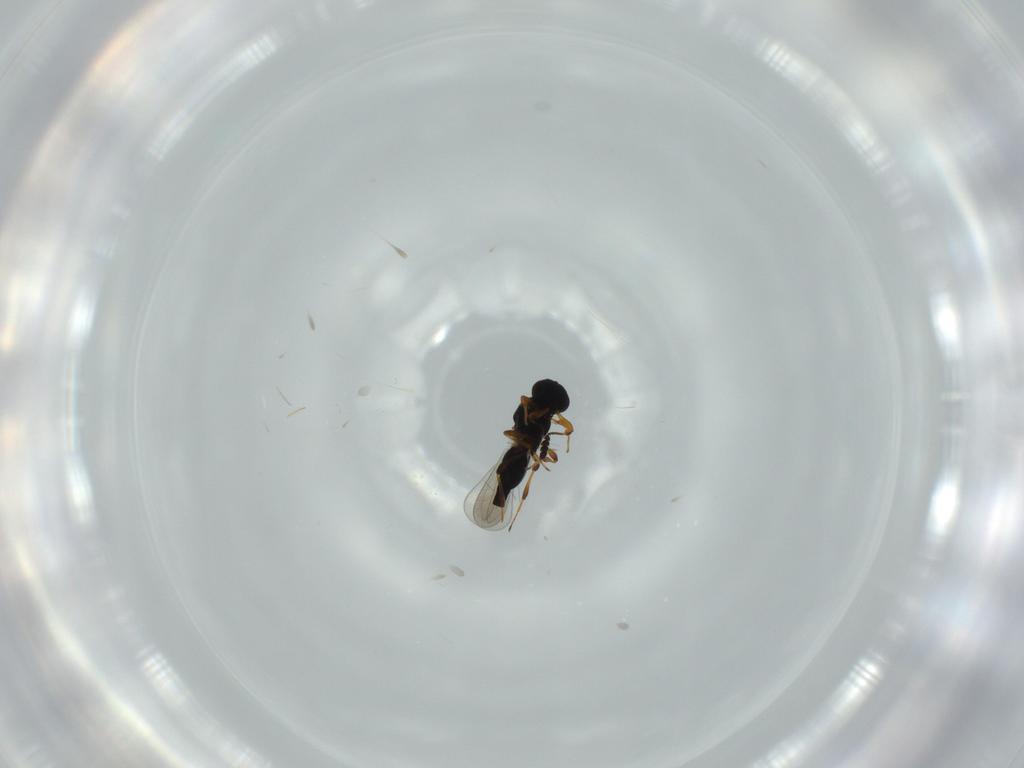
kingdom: Animalia
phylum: Arthropoda
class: Insecta
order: Hymenoptera
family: Platygastridae
